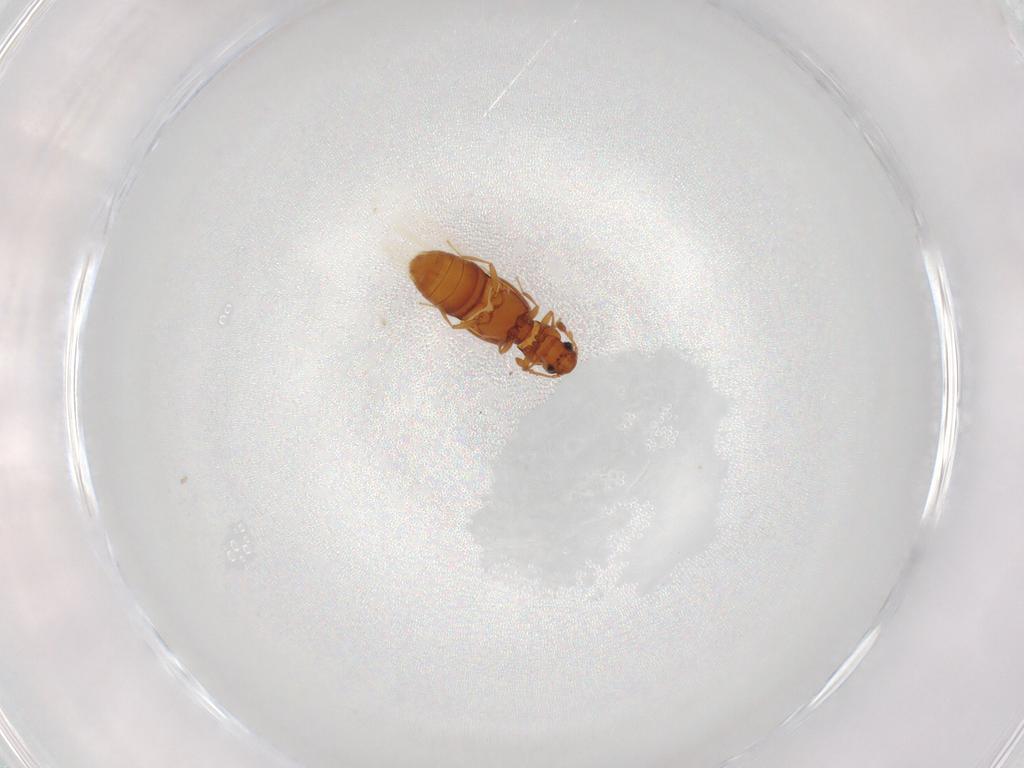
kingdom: Animalia
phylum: Arthropoda
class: Insecta
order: Coleoptera
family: Staphylinidae
